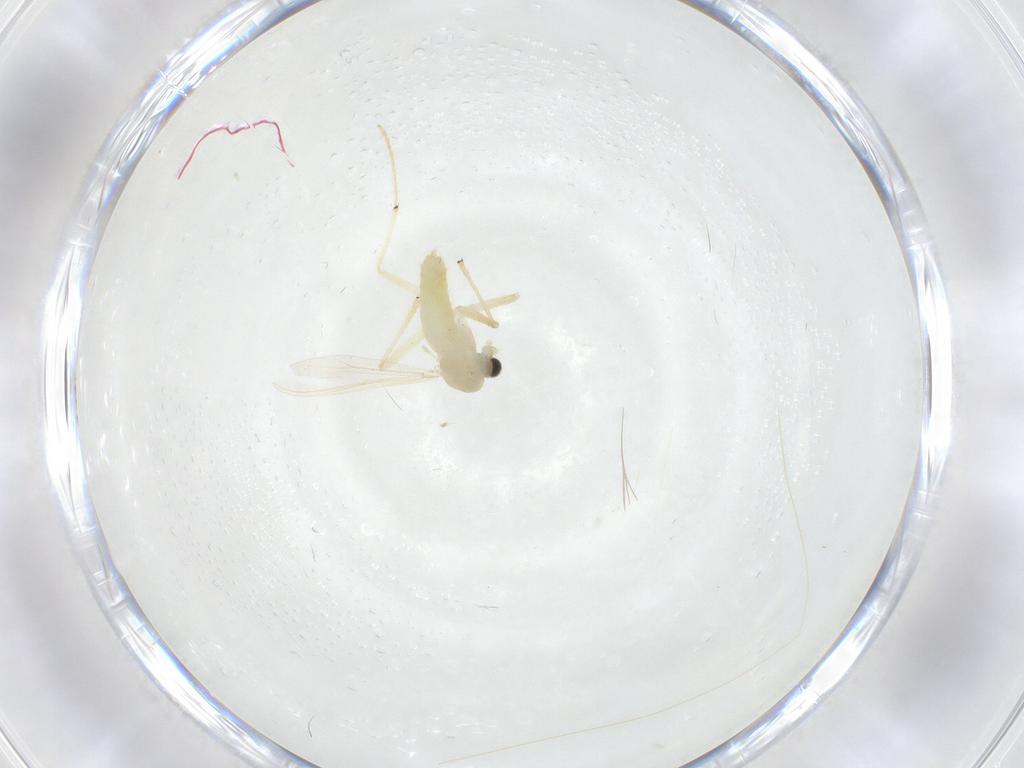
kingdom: Animalia
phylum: Arthropoda
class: Insecta
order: Diptera
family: Chironomidae
